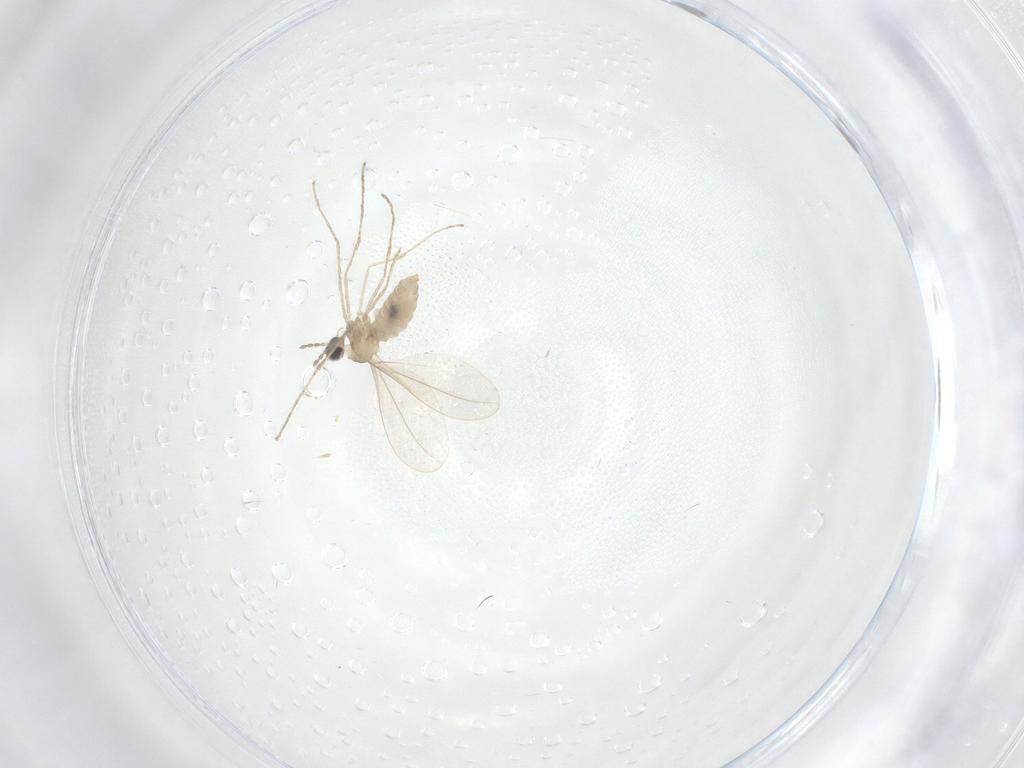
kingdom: Animalia
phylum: Arthropoda
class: Insecta
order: Diptera
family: Cecidomyiidae
